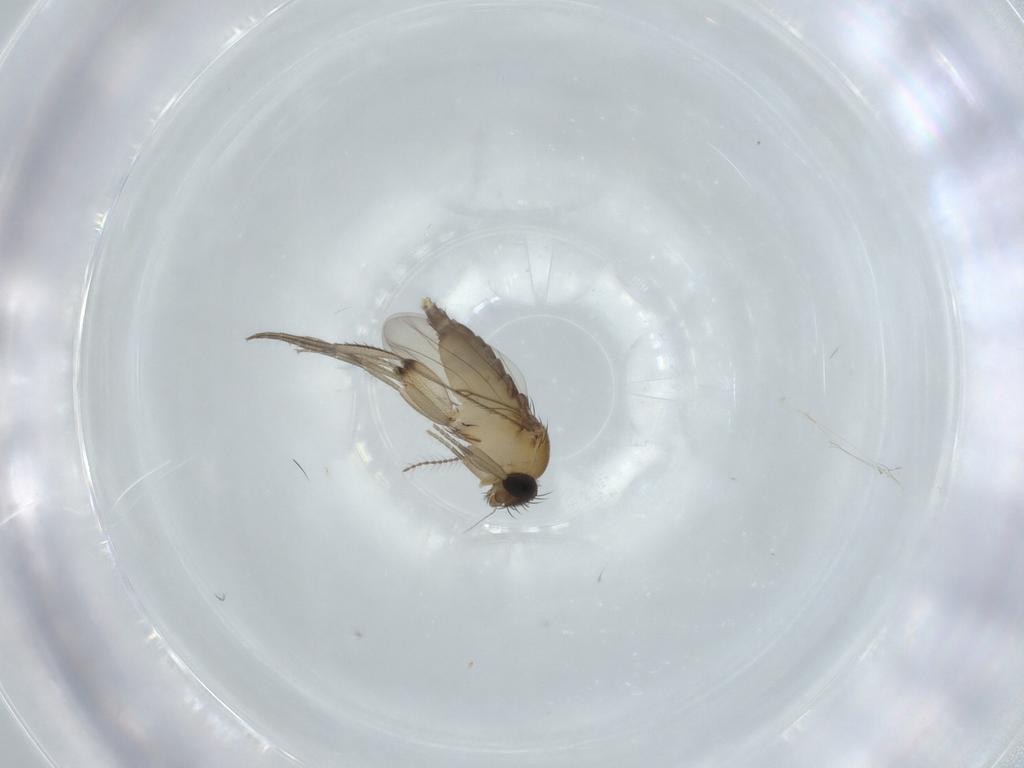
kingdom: Animalia
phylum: Arthropoda
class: Insecta
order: Diptera
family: Phoridae
